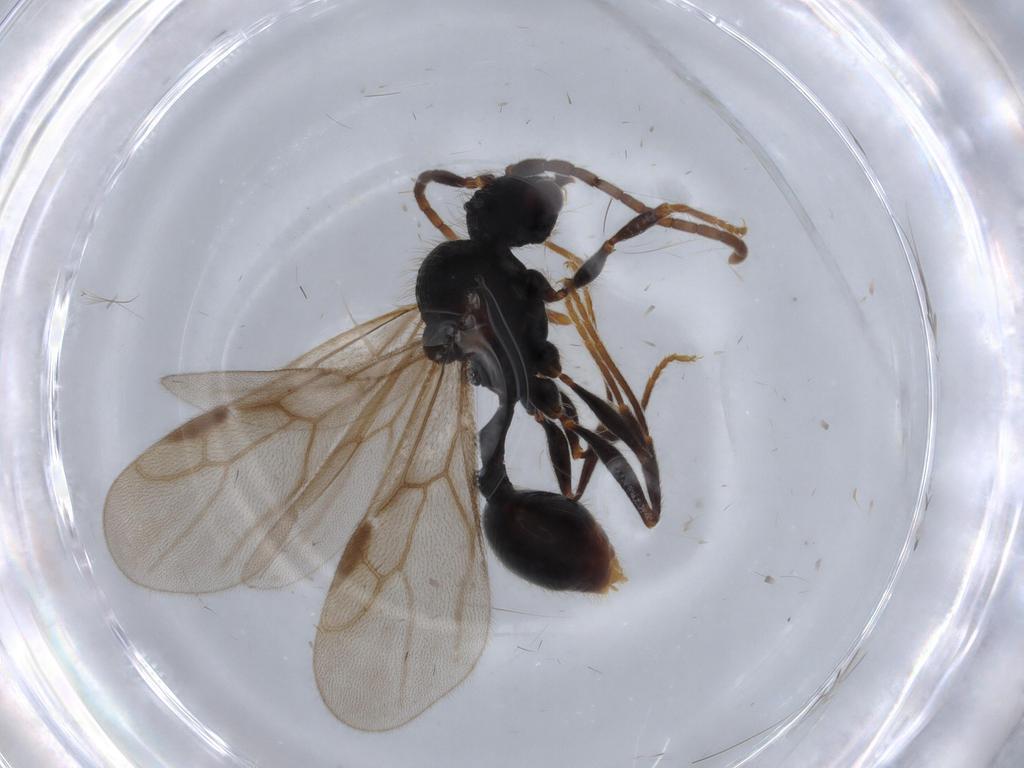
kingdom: Animalia
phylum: Arthropoda
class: Insecta
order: Hymenoptera
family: Formicidae
